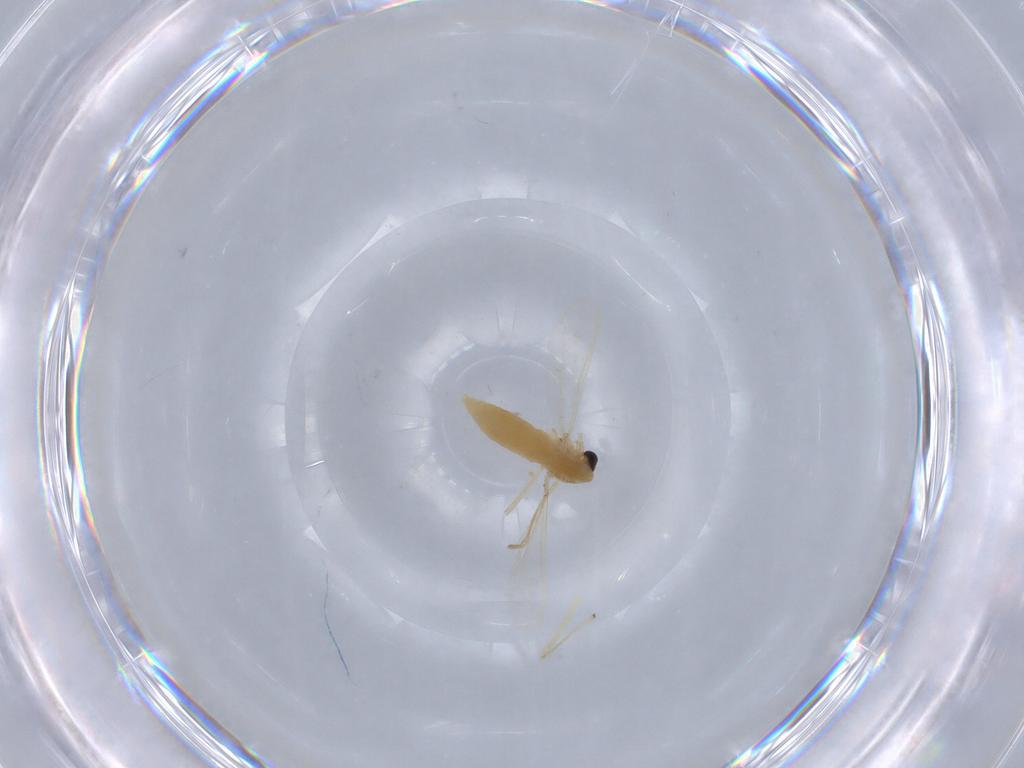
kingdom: Animalia
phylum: Arthropoda
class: Insecta
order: Diptera
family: Chironomidae
